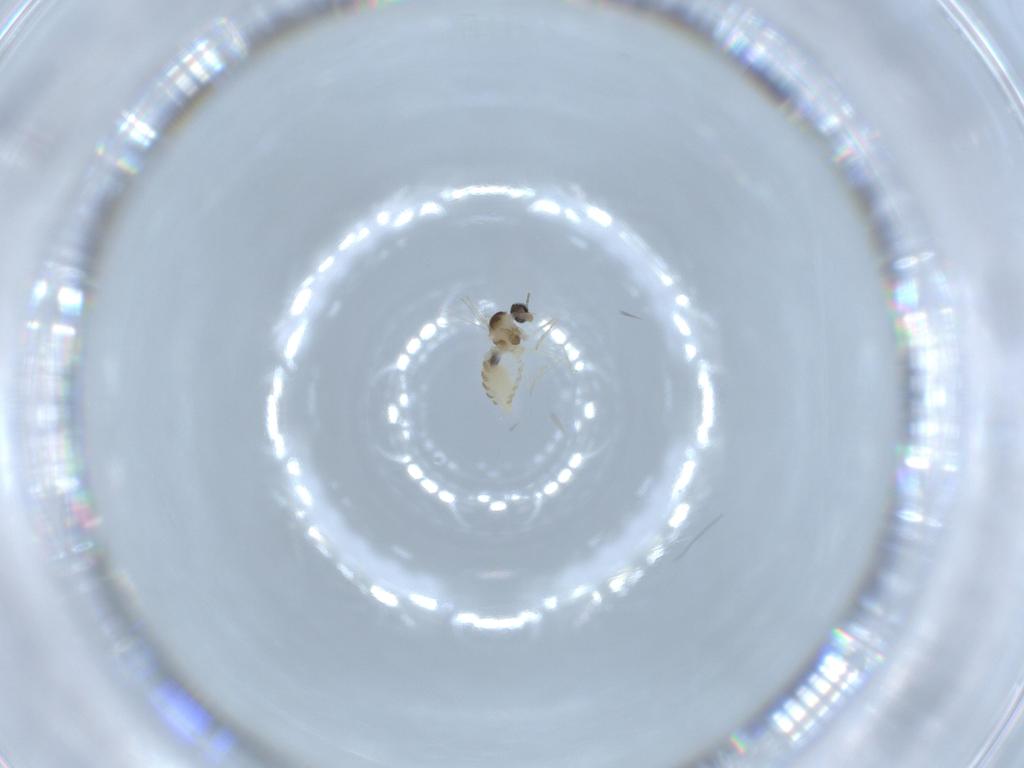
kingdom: Animalia
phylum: Arthropoda
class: Insecta
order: Diptera
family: Cecidomyiidae
